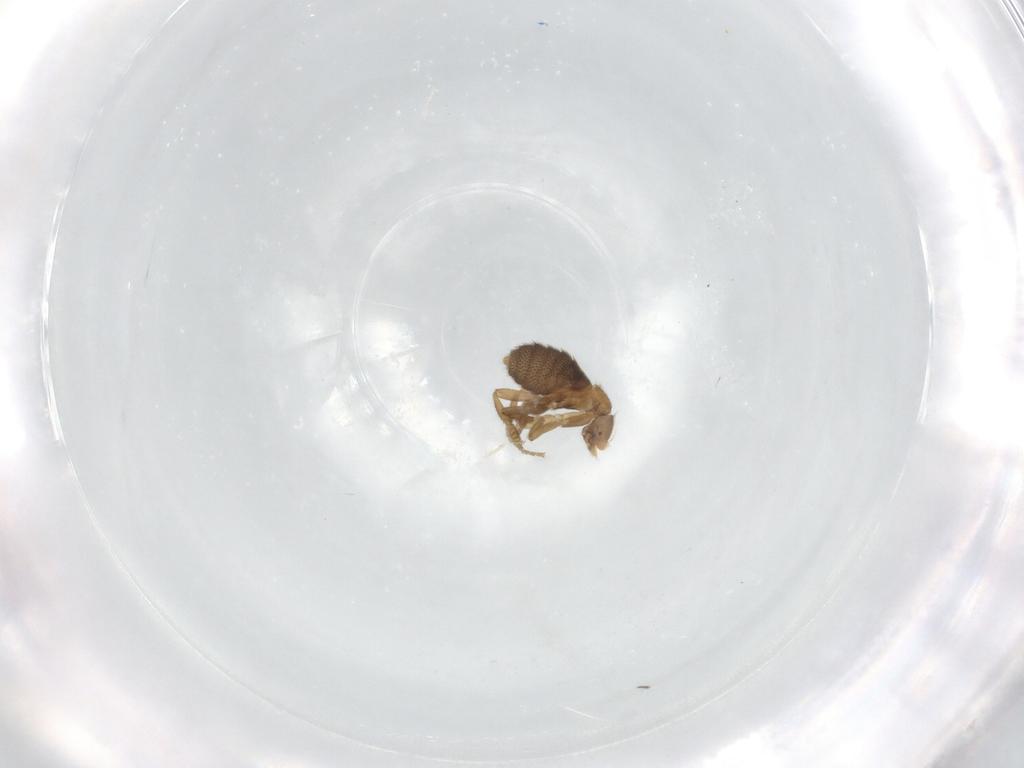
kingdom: Animalia
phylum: Arthropoda
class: Insecta
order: Diptera
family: Phoridae
